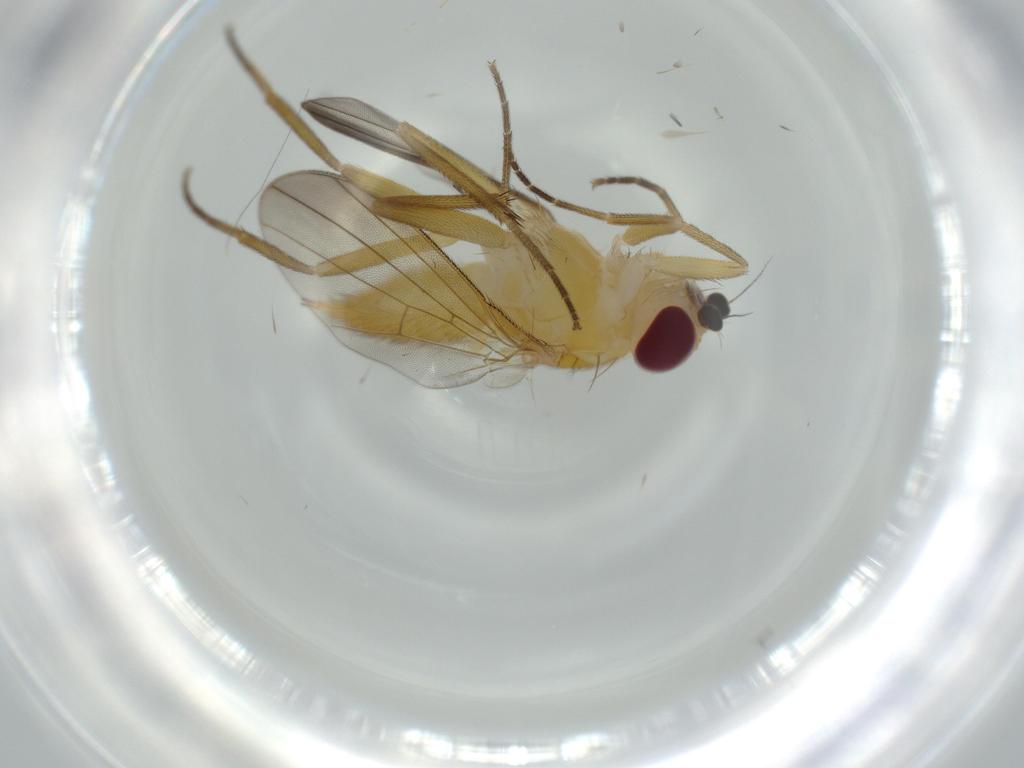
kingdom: Animalia
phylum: Arthropoda
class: Insecta
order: Diptera
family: Clusiidae
